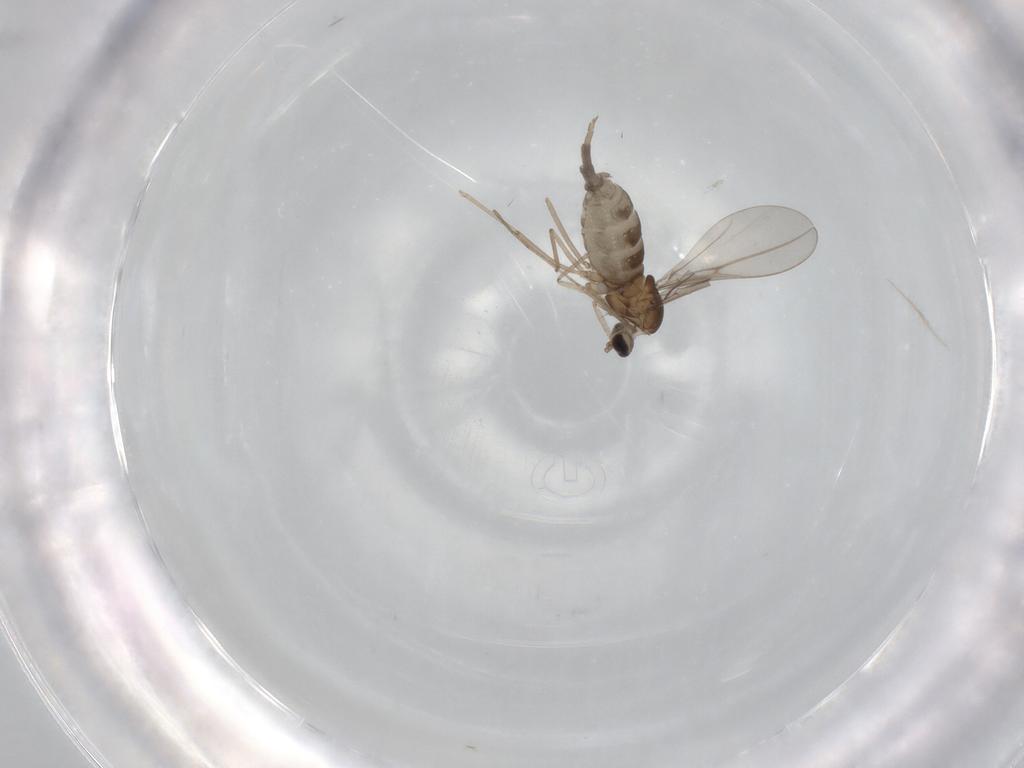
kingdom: Animalia
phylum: Arthropoda
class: Insecta
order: Diptera
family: Cecidomyiidae
